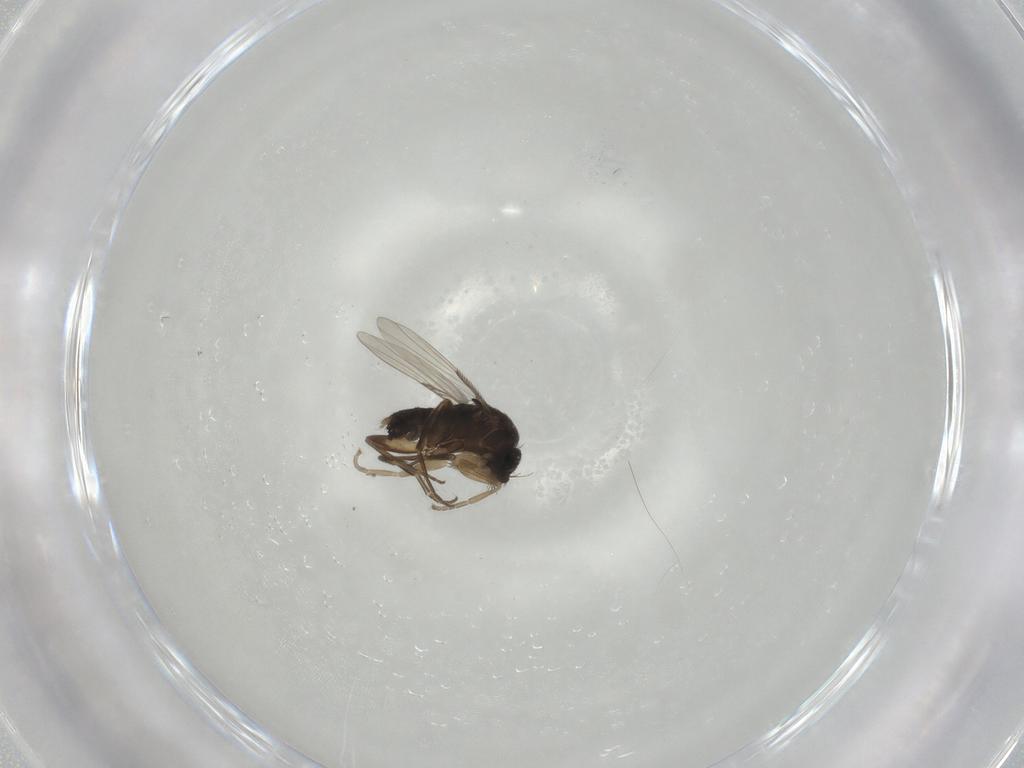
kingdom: Animalia
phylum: Arthropoda
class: Insecta
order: Diptera
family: Phoridae
